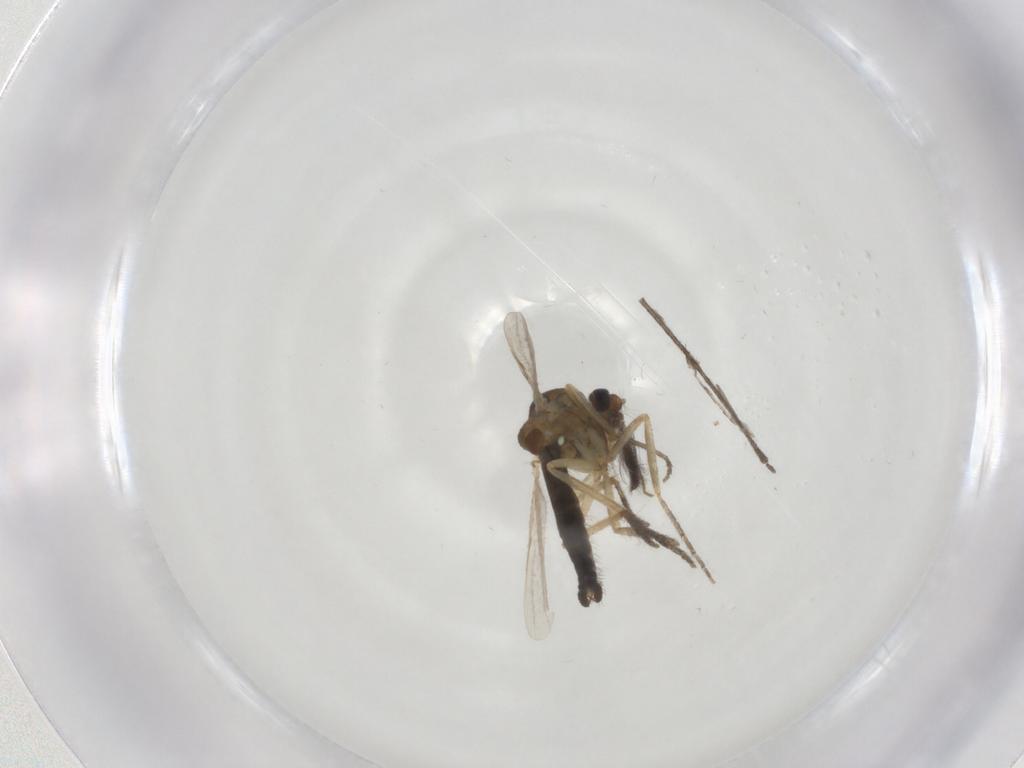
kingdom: Animalia
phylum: Arthropoda
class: Insecta
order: Diptera
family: Ceratopogonidae
